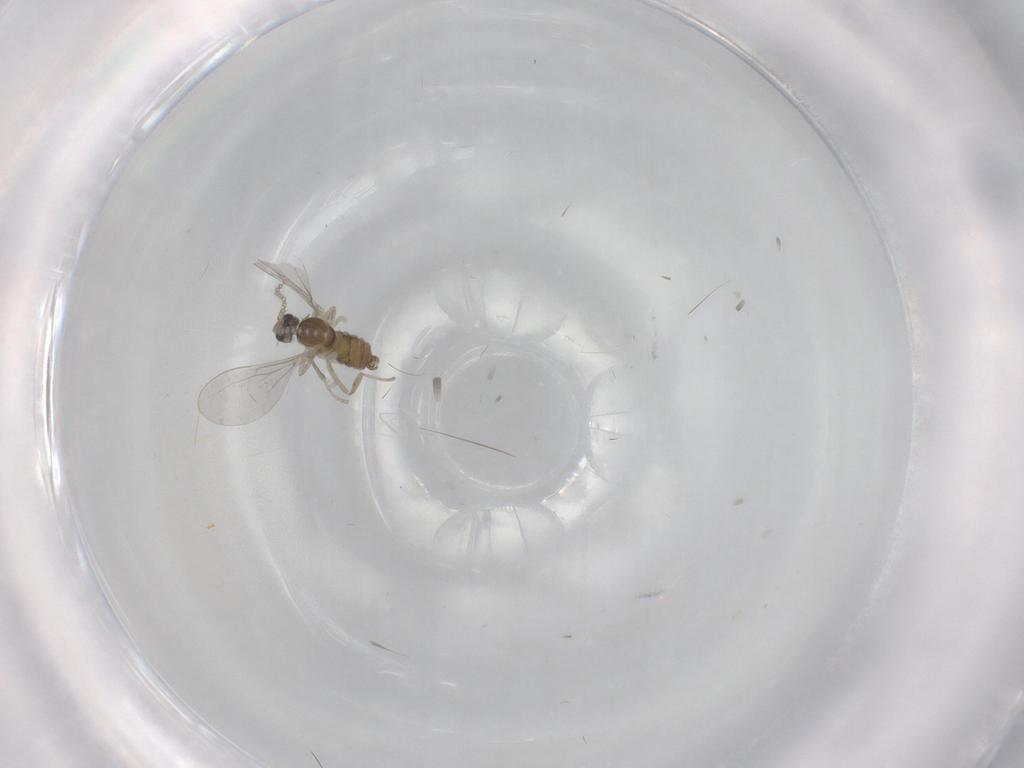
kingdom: Animalia
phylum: Arthropoda
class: Insecta
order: Diptera
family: Cecidomyiidae
